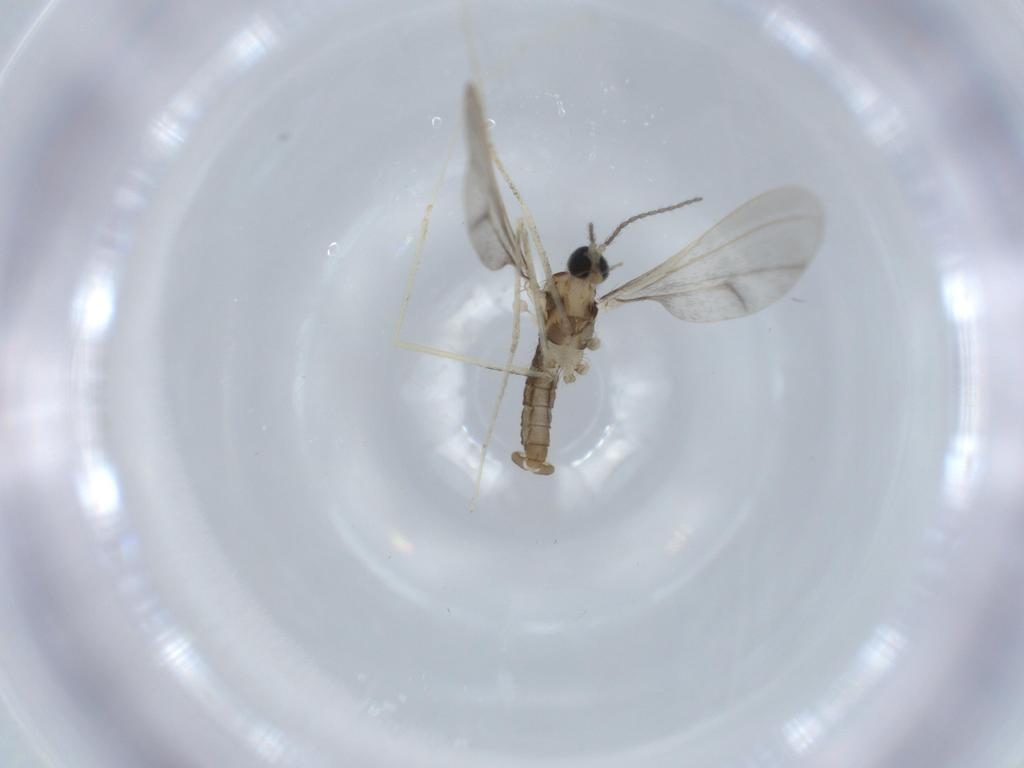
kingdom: Animalia
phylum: Arthropoda
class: Insecta
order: Diptera
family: Cecidomyiidae
